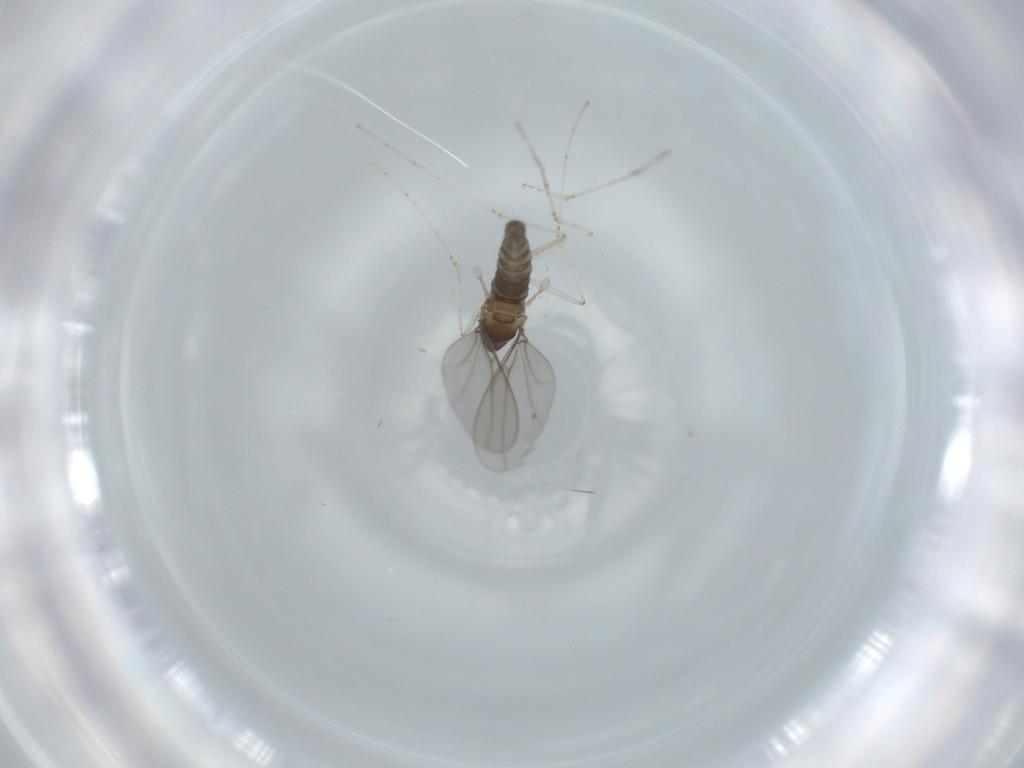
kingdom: Animalia
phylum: Arthropoda
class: Insecta
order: Diptera
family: Cecidomyiidae
